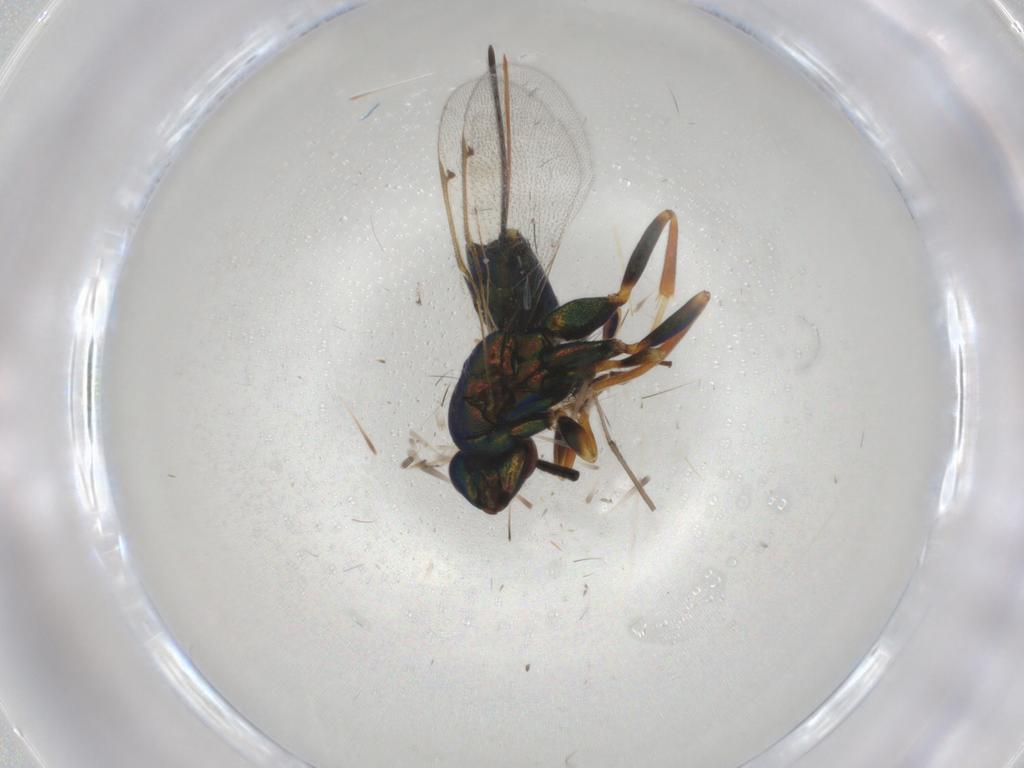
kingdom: Animalia
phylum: Arthropoda
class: Insecta
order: Hymenoptera
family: Torymidae
